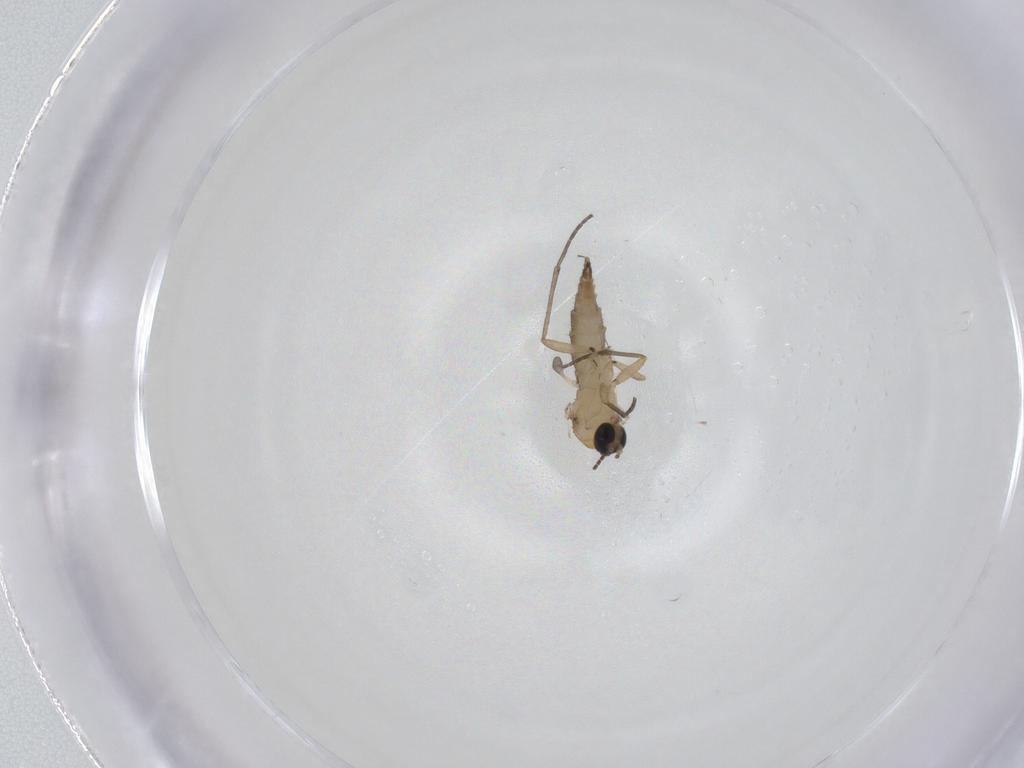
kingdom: Animalia
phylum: Arthropoda
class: Insecta
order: Diptera
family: Sciaridae
